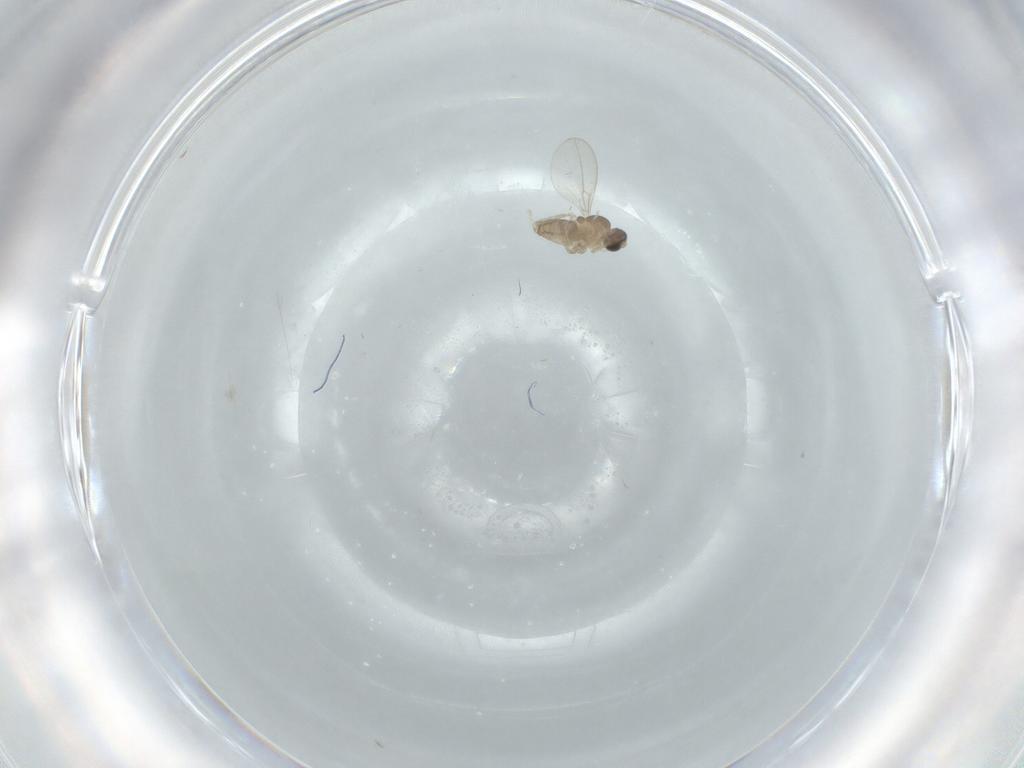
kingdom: Animalia
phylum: Arthropoda
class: Insecta
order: Diptera
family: Cecidomyiidae
